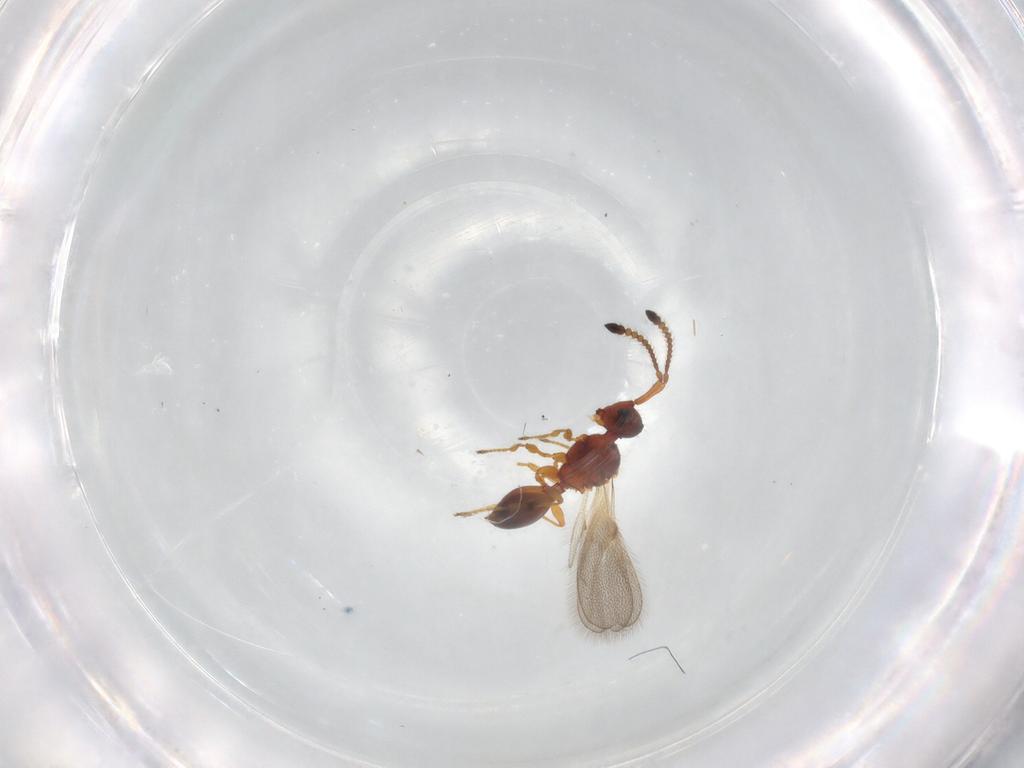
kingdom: Animalia
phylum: Arthropoda
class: Insecta
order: Hymenoptera
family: Diapriidae
